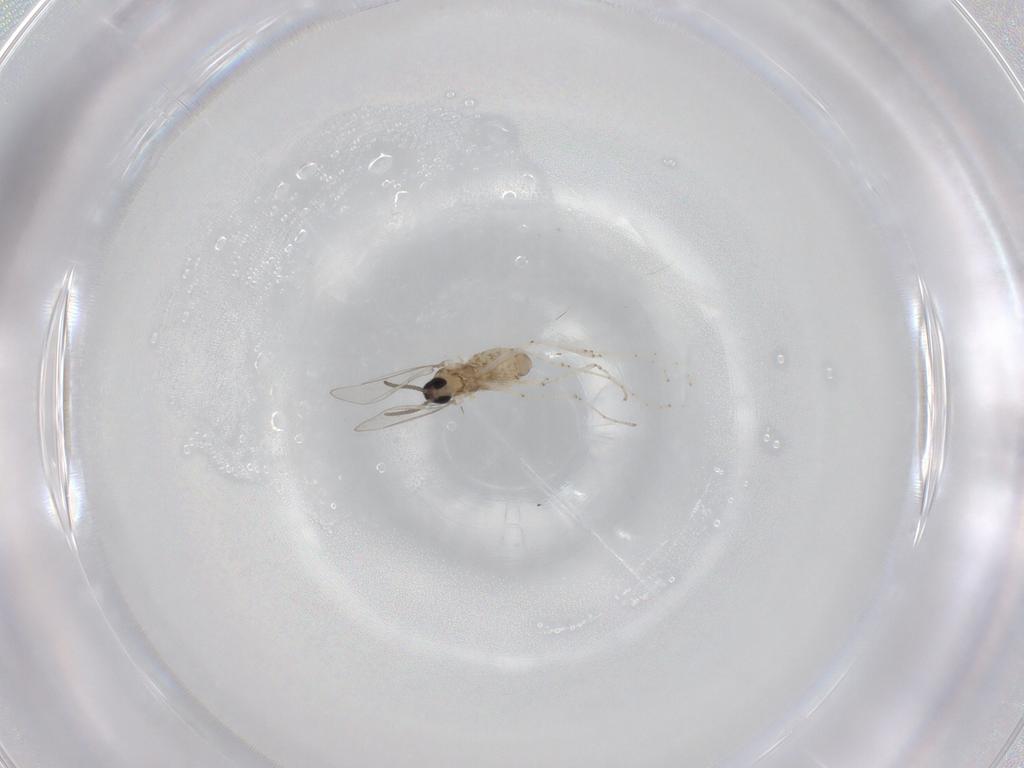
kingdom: Animalia
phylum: Arthropoda
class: Insecta
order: Diptera
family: Cecidomyiidae
